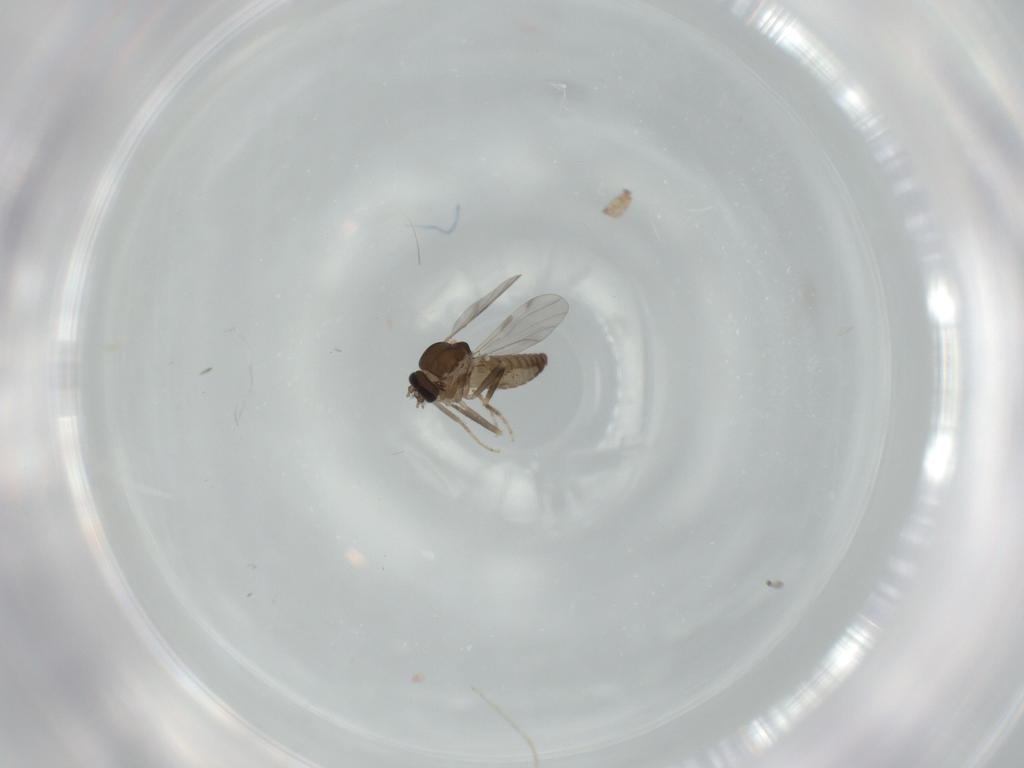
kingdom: Animalia
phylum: Arthropoda
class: Insecta
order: Diptera
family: Ceratopogonidae
